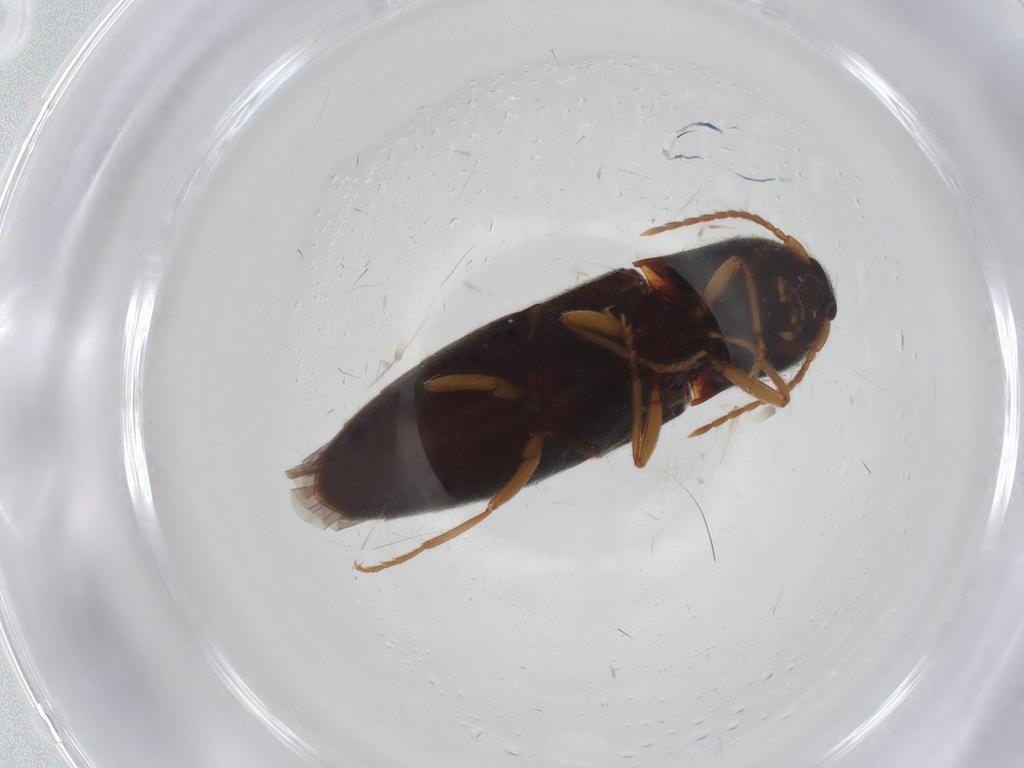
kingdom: Animalia
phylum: Arthropoda
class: Insecta
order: Coleoptera
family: Elateridae
